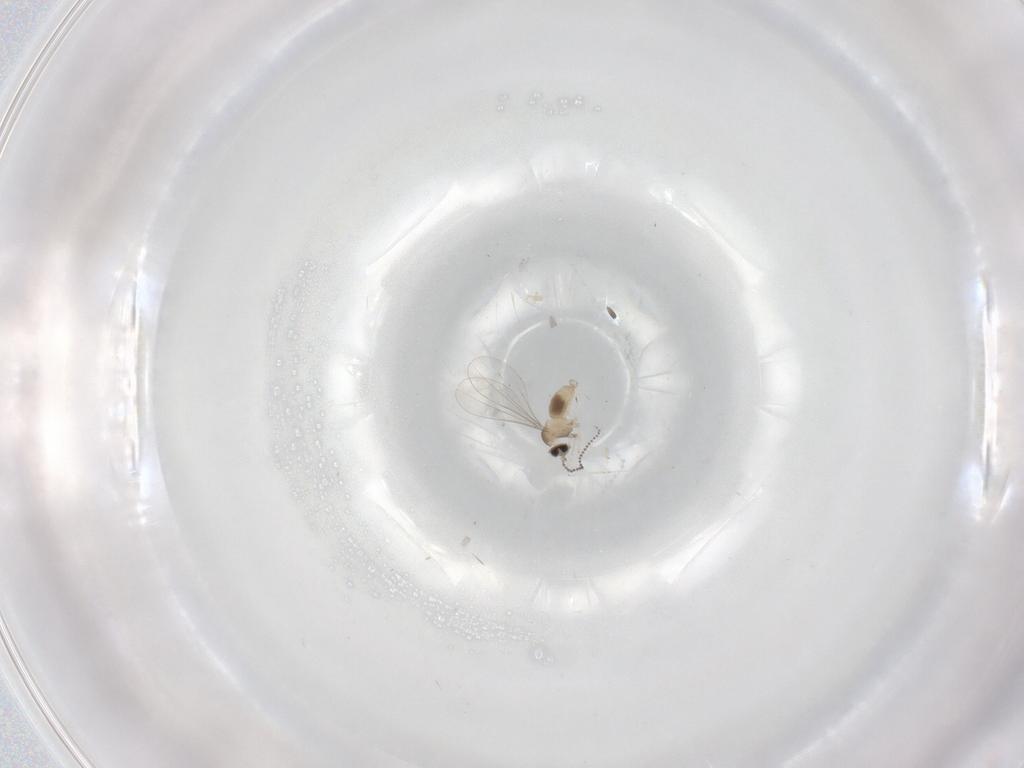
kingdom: Animalia
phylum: Arthropoda
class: Insecta
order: Diptera
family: Cecidomyiidae
